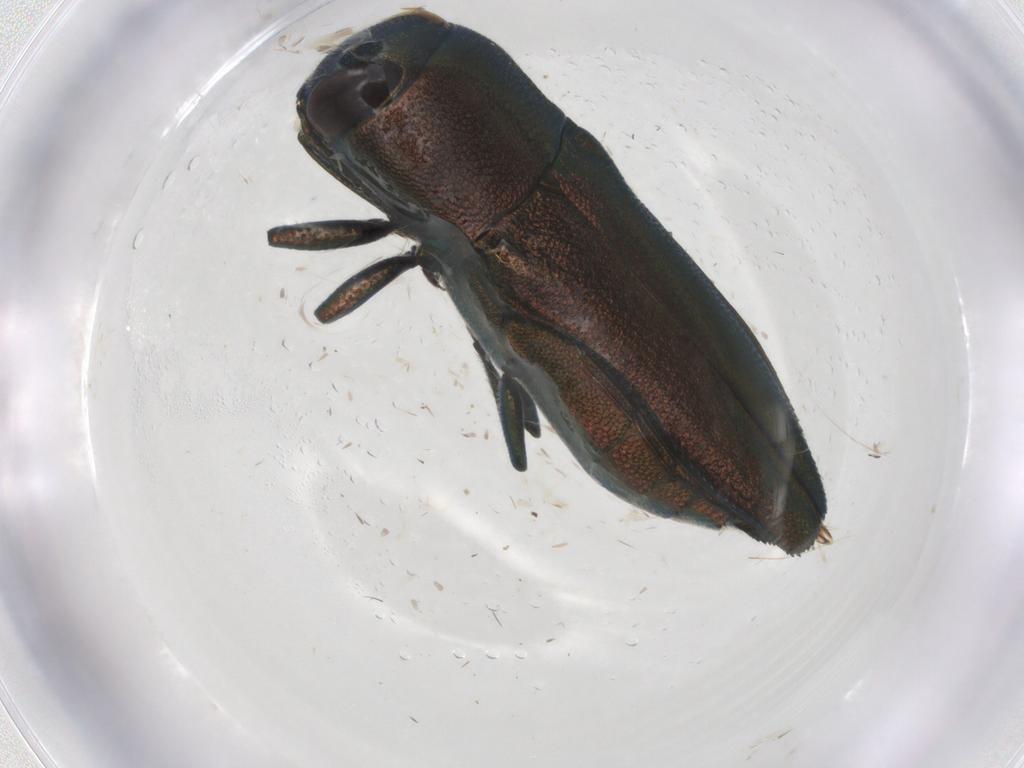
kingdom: Animalia
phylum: Arthropoda
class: Insecta
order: Coleoptera
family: Buprestidae
